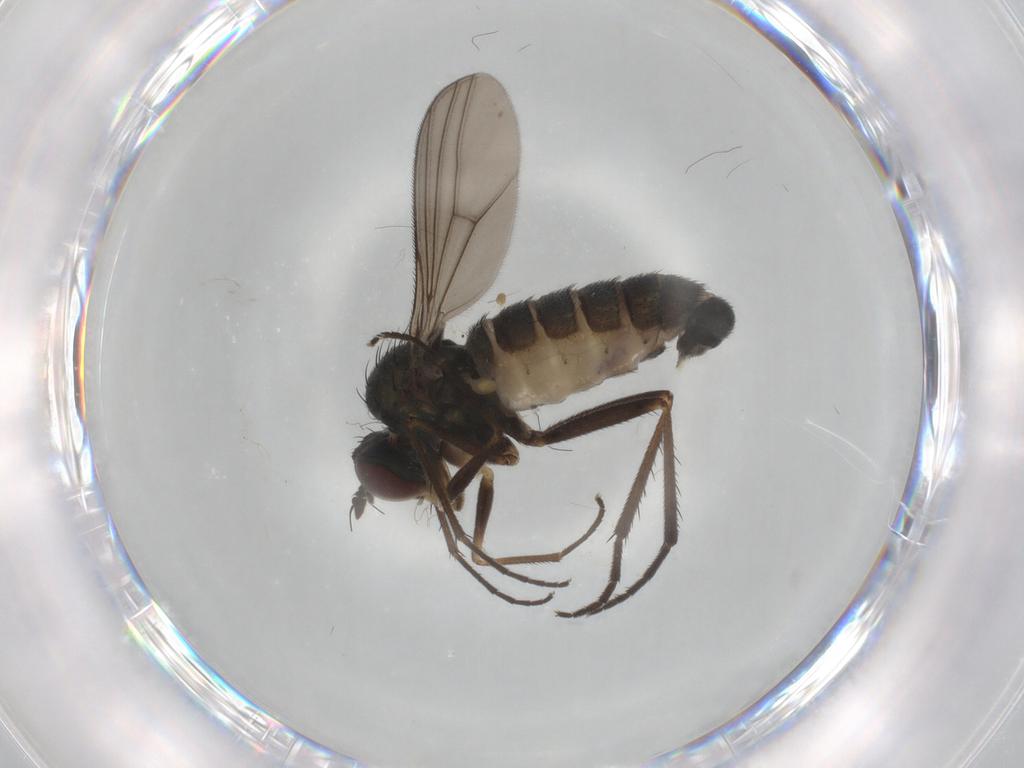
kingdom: Animalia
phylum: Arthropoda
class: Insecta
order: Diptera
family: Dolichopodidae
